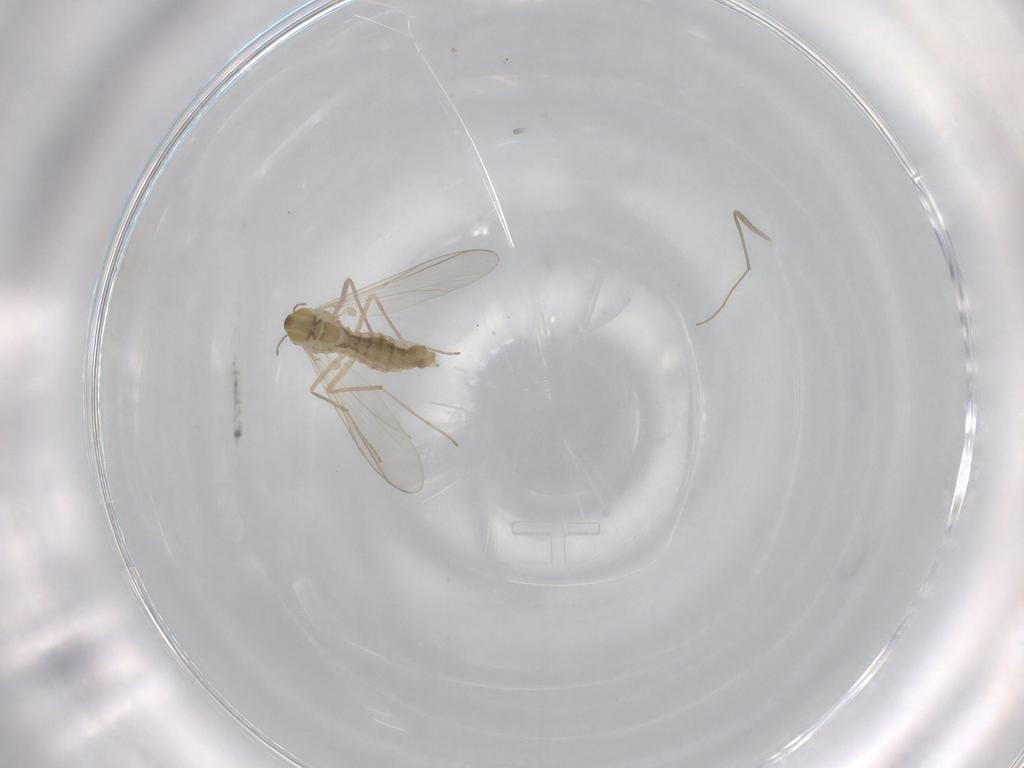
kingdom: Animalia
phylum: Arthropoda
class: Insecta
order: Diptera
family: Chironomidae
